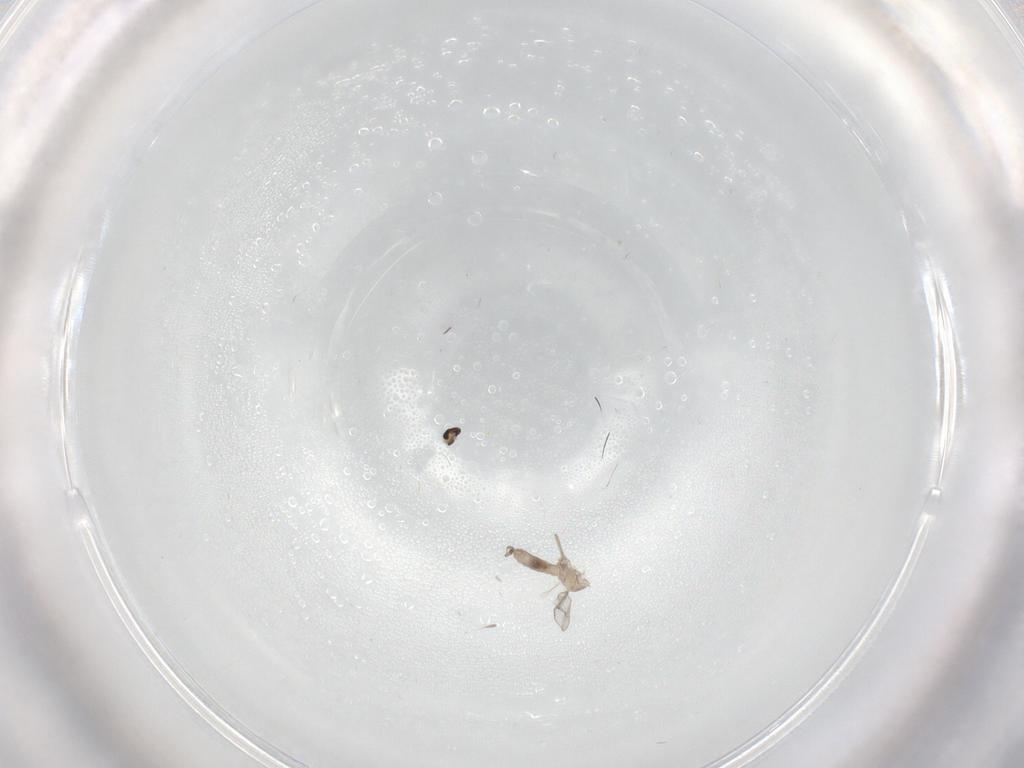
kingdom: Animalia
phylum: Arthropoda
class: Insecta
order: Diptera
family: Cecidomyiidae
